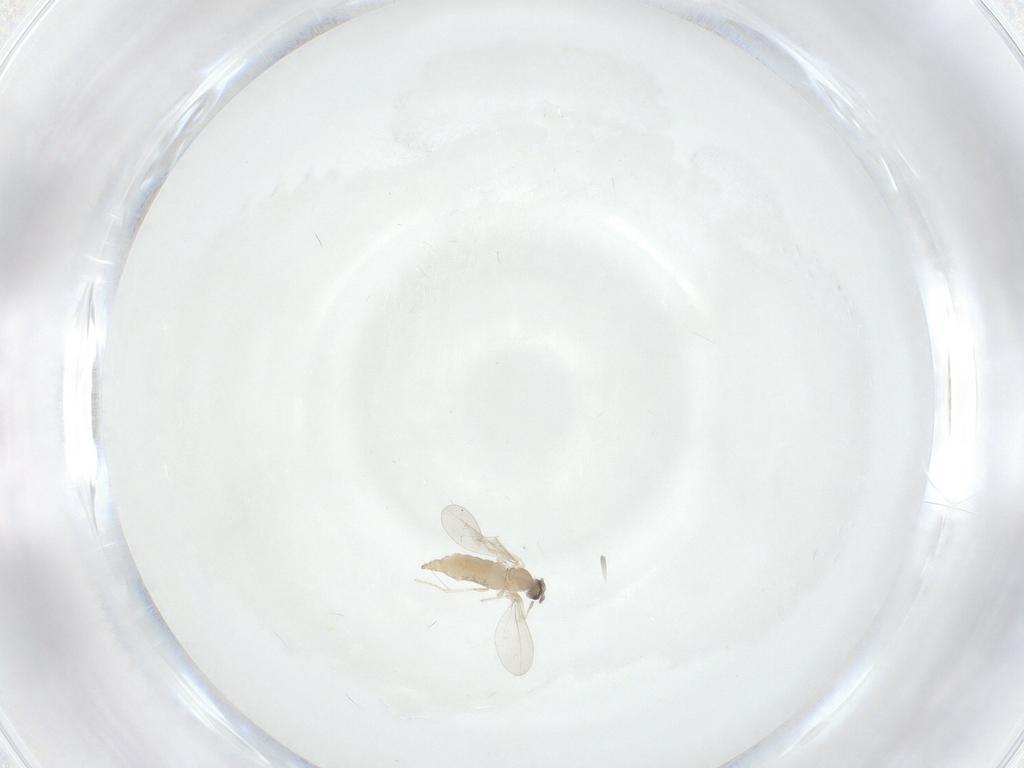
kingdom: Animalia
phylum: Arthropoda
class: Insecta
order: Diptera
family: Cecidomyiidae
